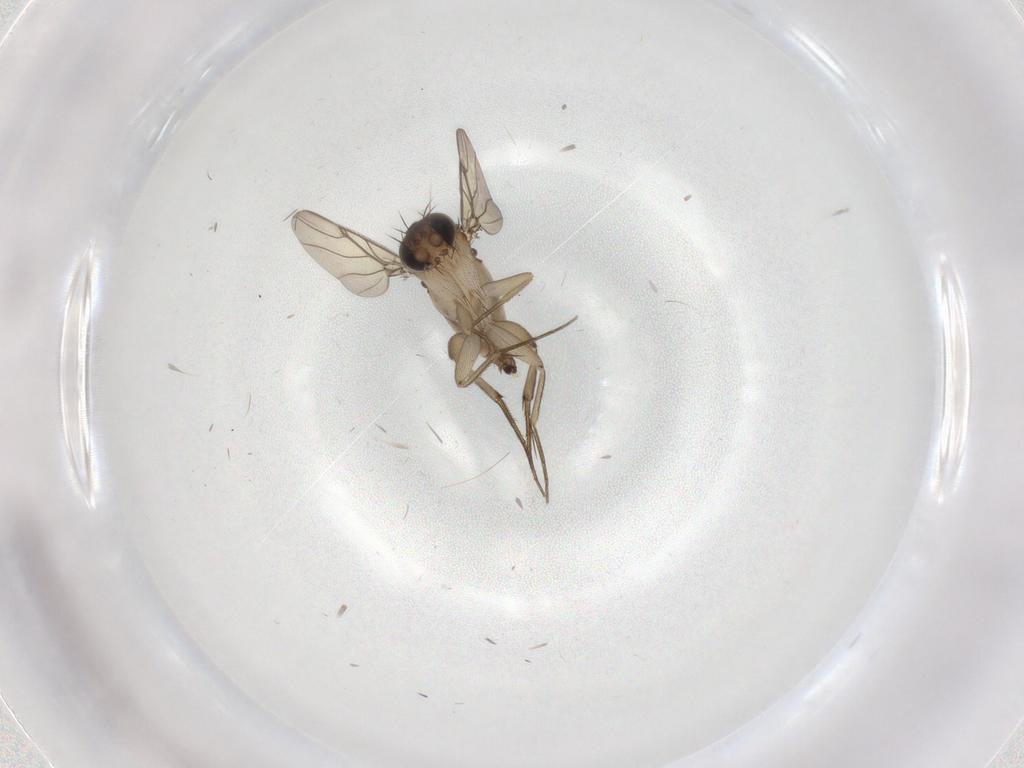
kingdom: Animalia
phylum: Arthropoda
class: Insecta
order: Diptera
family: Phoridae
